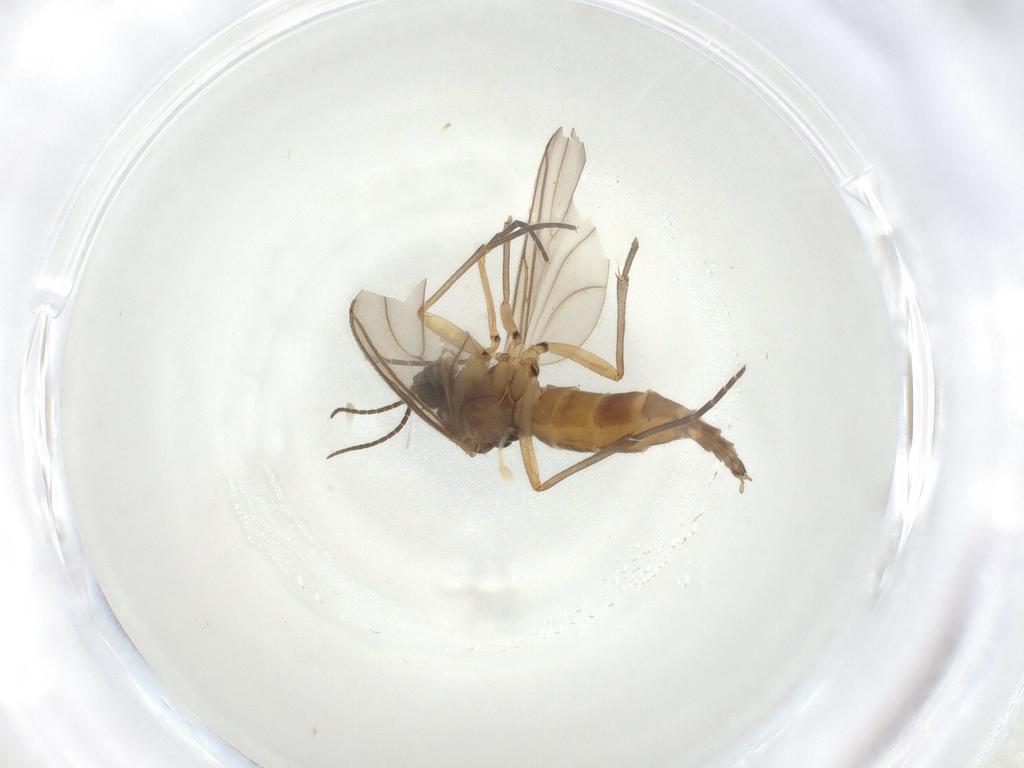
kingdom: Animalia
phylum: Arthropoda
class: Insecta
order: Diptera
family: Sciaridae
